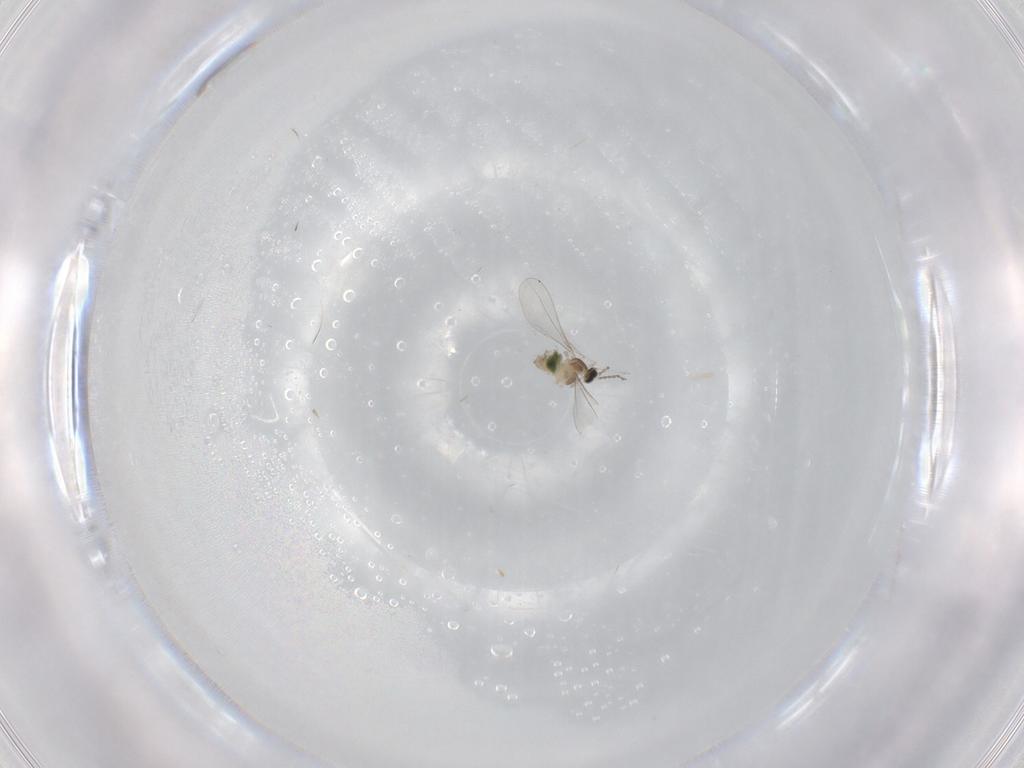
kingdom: Animalia
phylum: Arthropoda
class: Insecta
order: Diptera
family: Cecidomyiidae
